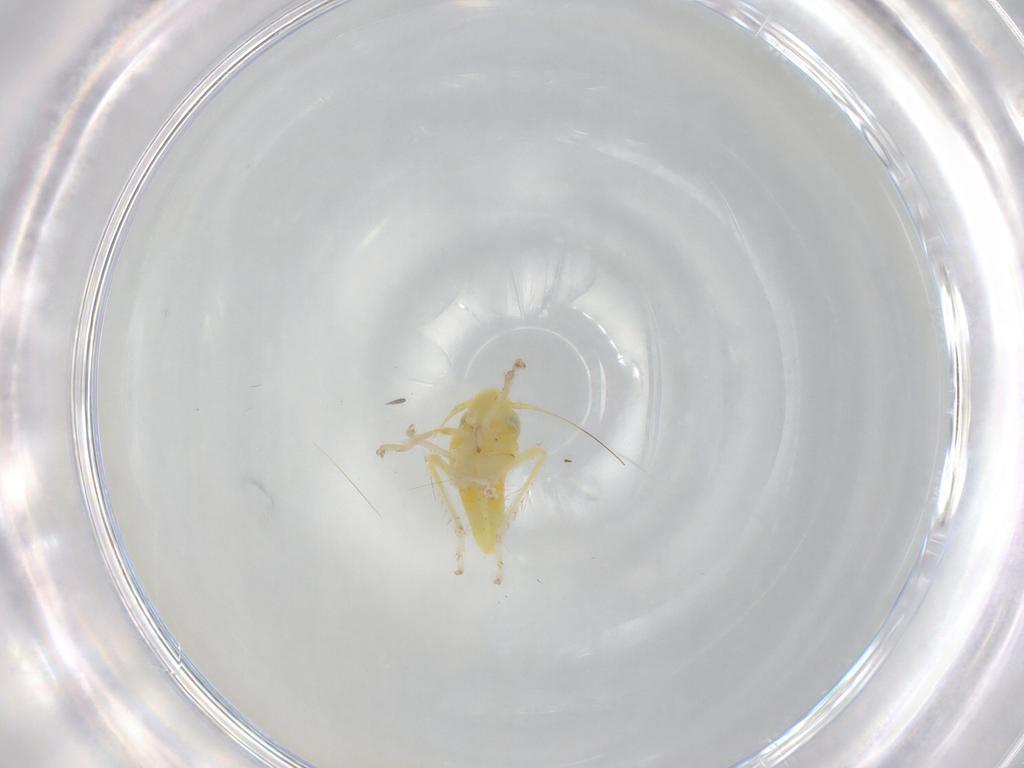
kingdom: Animalia
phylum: Arthropoda
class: Insecta
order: Hemiptera
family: Cicadellidae
